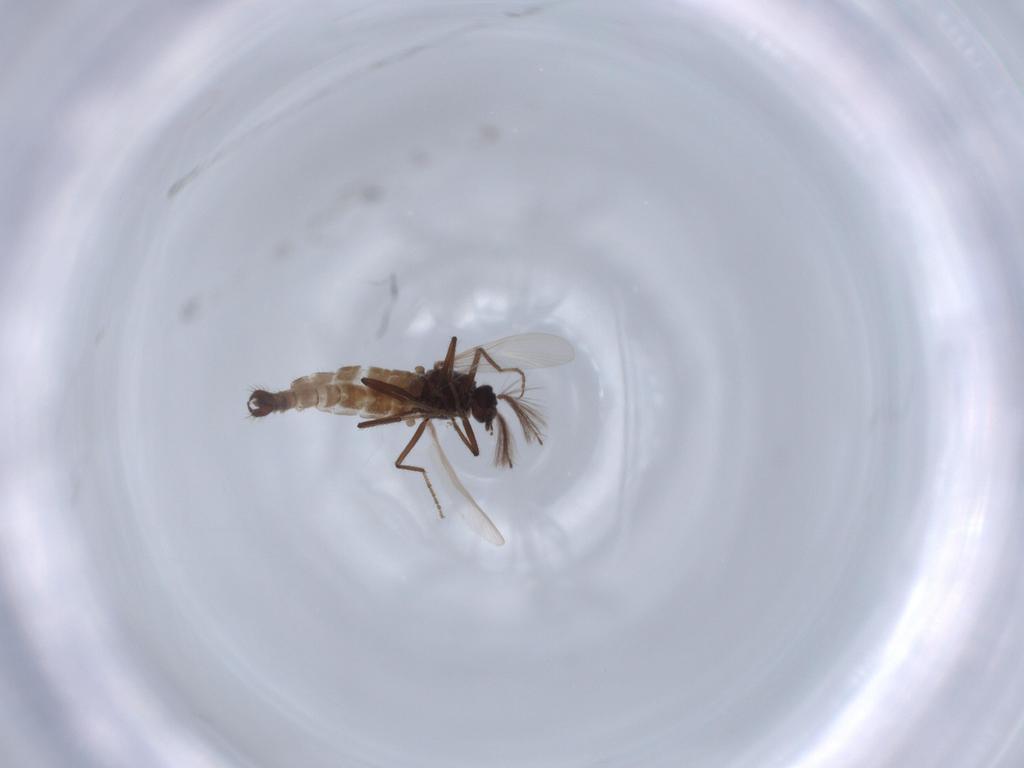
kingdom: Animalia
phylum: Arthropoda
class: Insecta
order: Diptera
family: Ceratopogonidae
